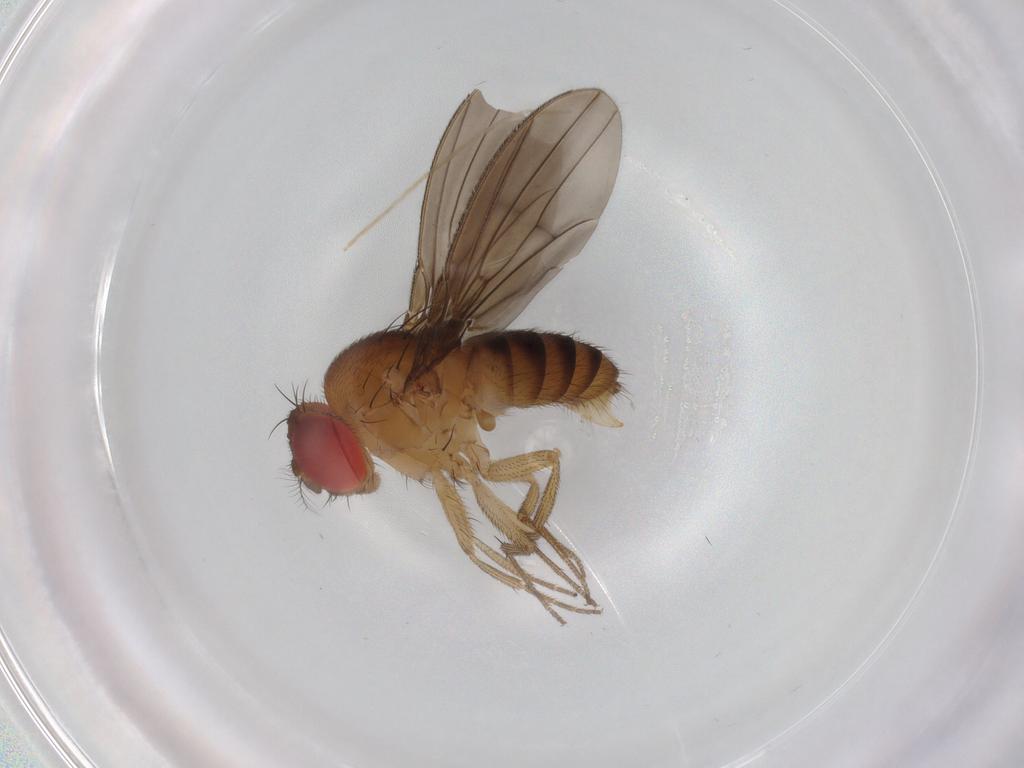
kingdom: Animalia
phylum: Arthropoda
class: Insecta
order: Diptera
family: Drosophilidae
